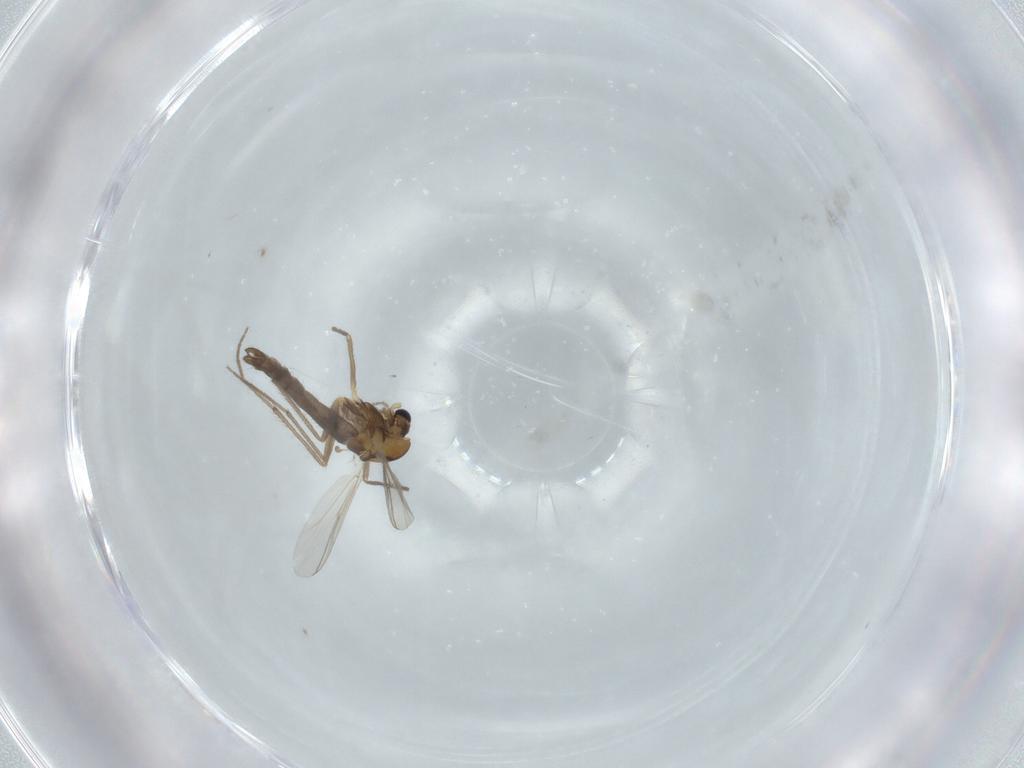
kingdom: Animalia
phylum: Arthropoda
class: Insecta
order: Diptera
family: Chironomidae
